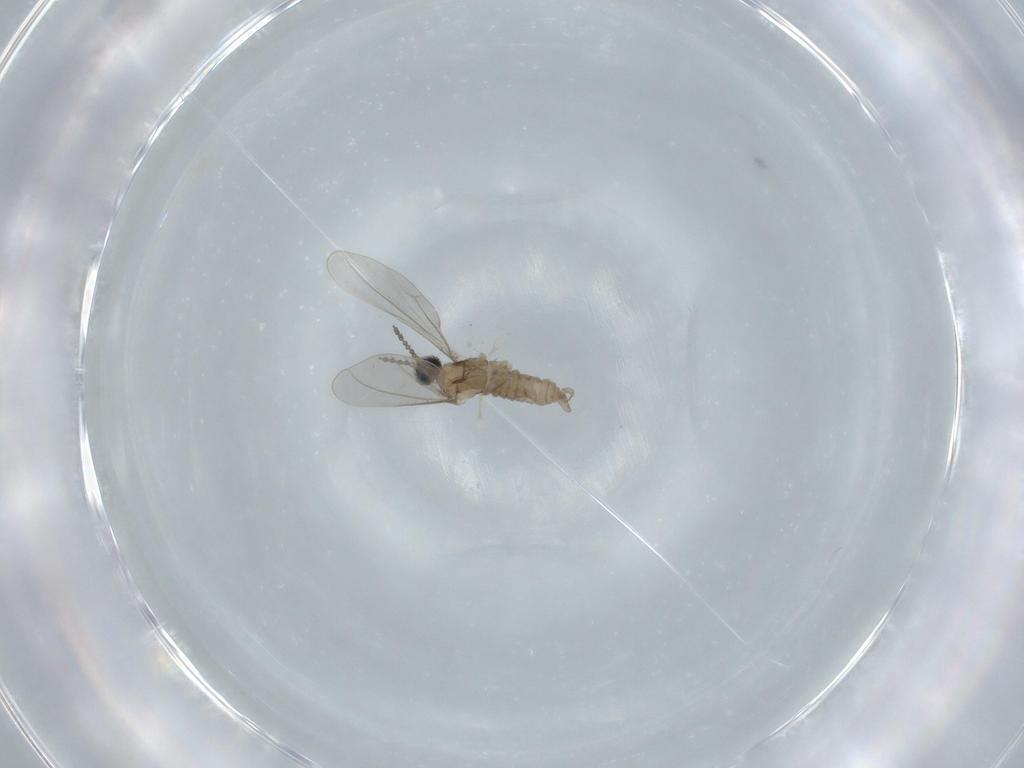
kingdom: Animalia
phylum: Arthropoda
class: Insecta
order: Diptera
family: Cecidomyiidae
